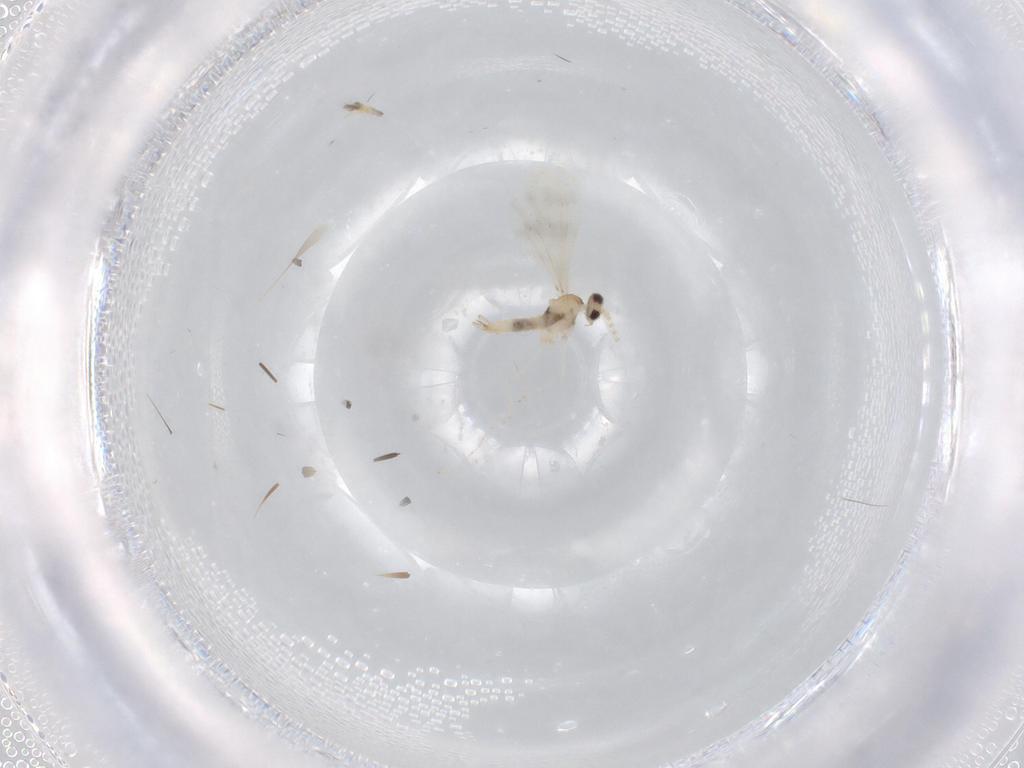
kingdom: Animalia
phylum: Arthropoda
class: Insecta
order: Diptera
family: Cecidomyiidae
